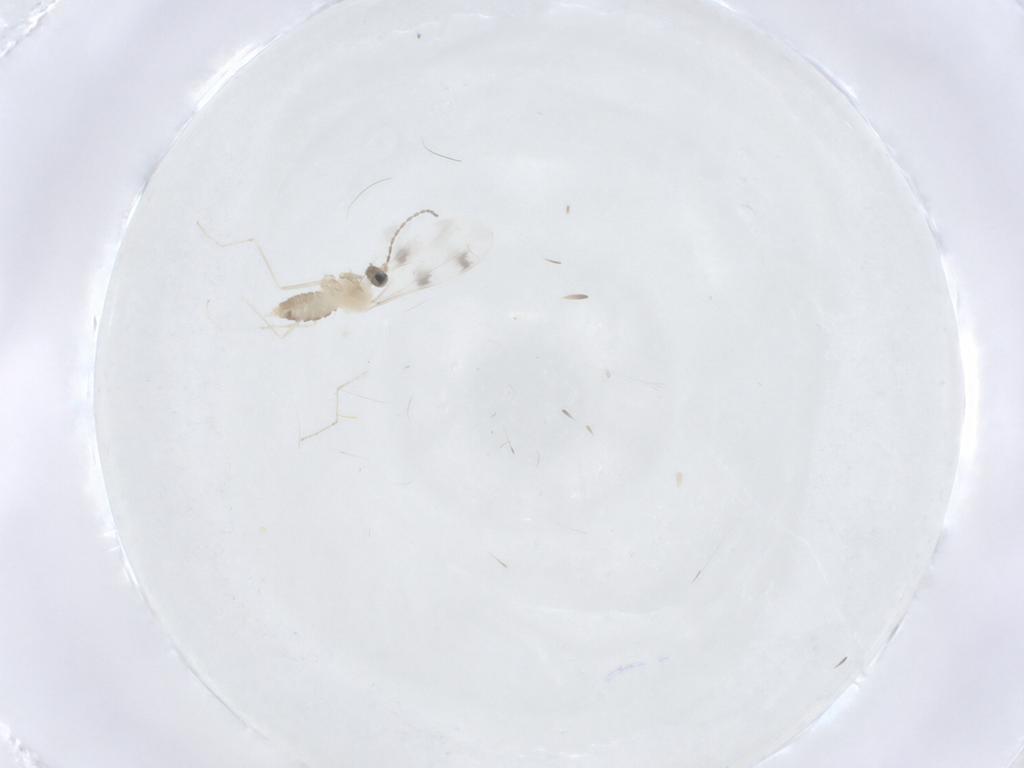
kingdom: Animalia
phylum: Arthropoda
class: Insecta
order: Diptera
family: Cecidomyiidae
